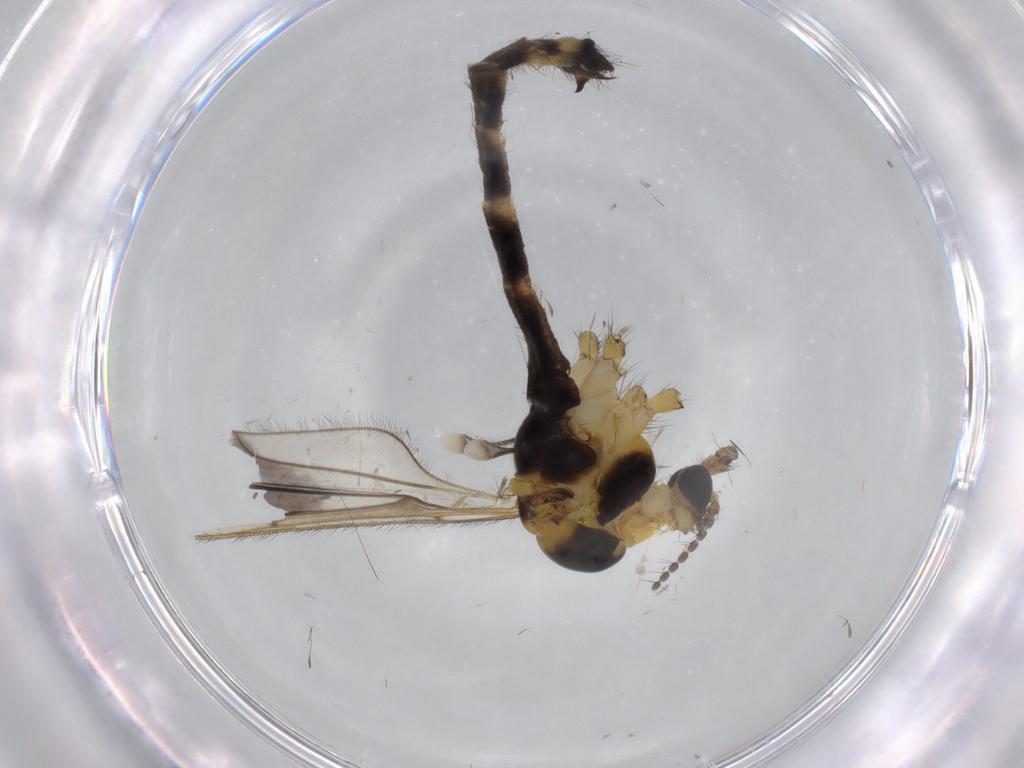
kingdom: Animalia
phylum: Arthropoda
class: Insecta
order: Diptera
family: Limoniidae
